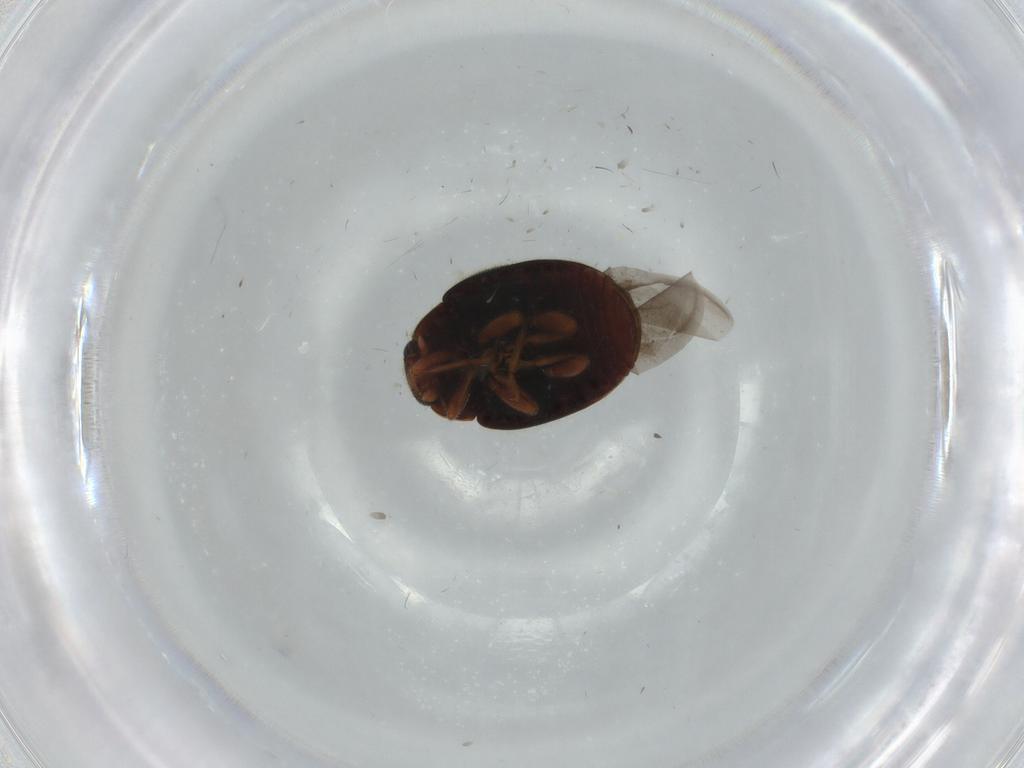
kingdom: Animalia
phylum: Arthropoda
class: Insecta
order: Coleoptera
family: Coccinellidae
